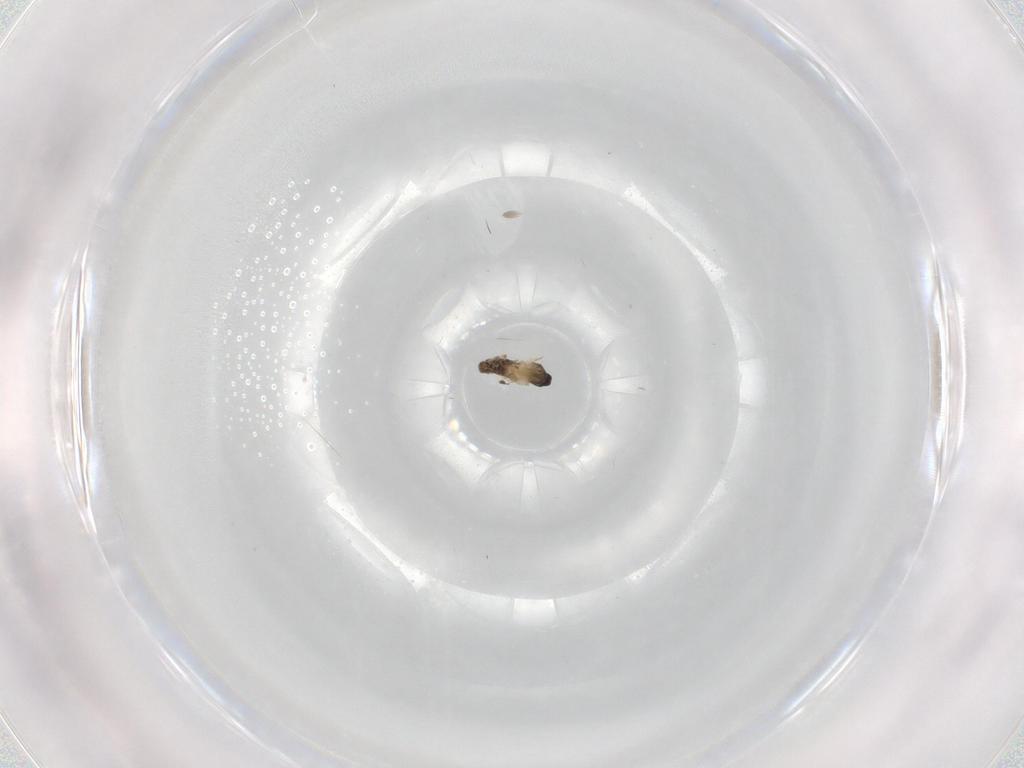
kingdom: Animalia
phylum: Arthropoda
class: Insecta
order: Diptera
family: Cecidomyiidae
